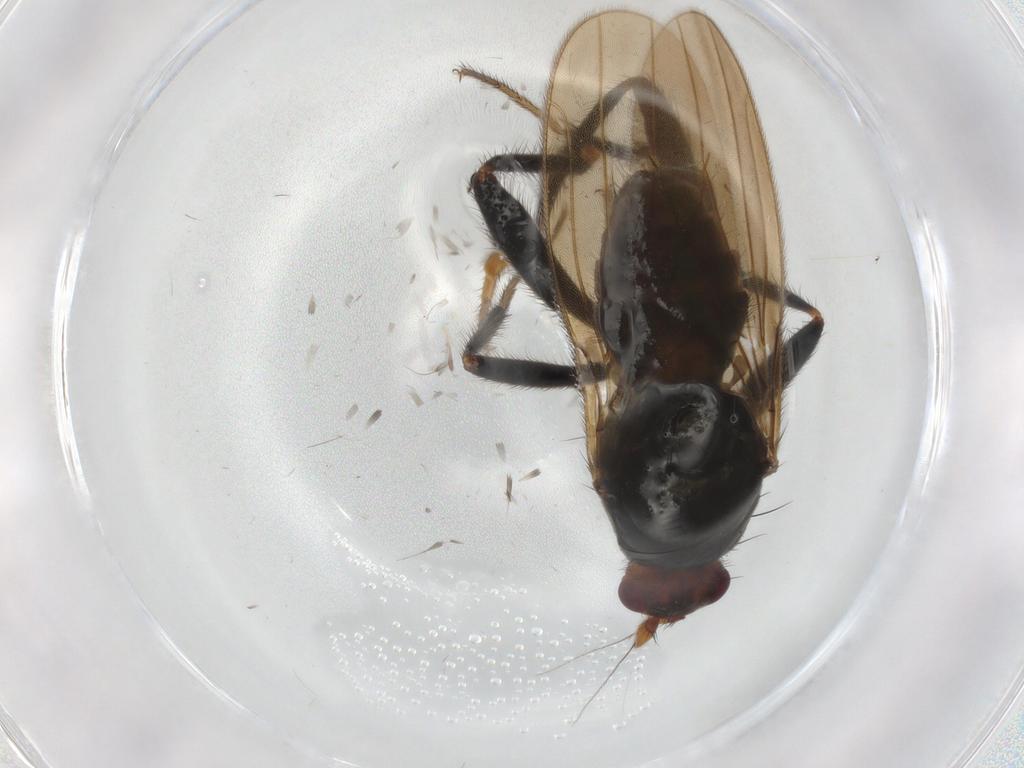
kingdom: Animalia
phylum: Arthropoda
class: Insecta
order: Diptera
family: Sphaeroceridae
